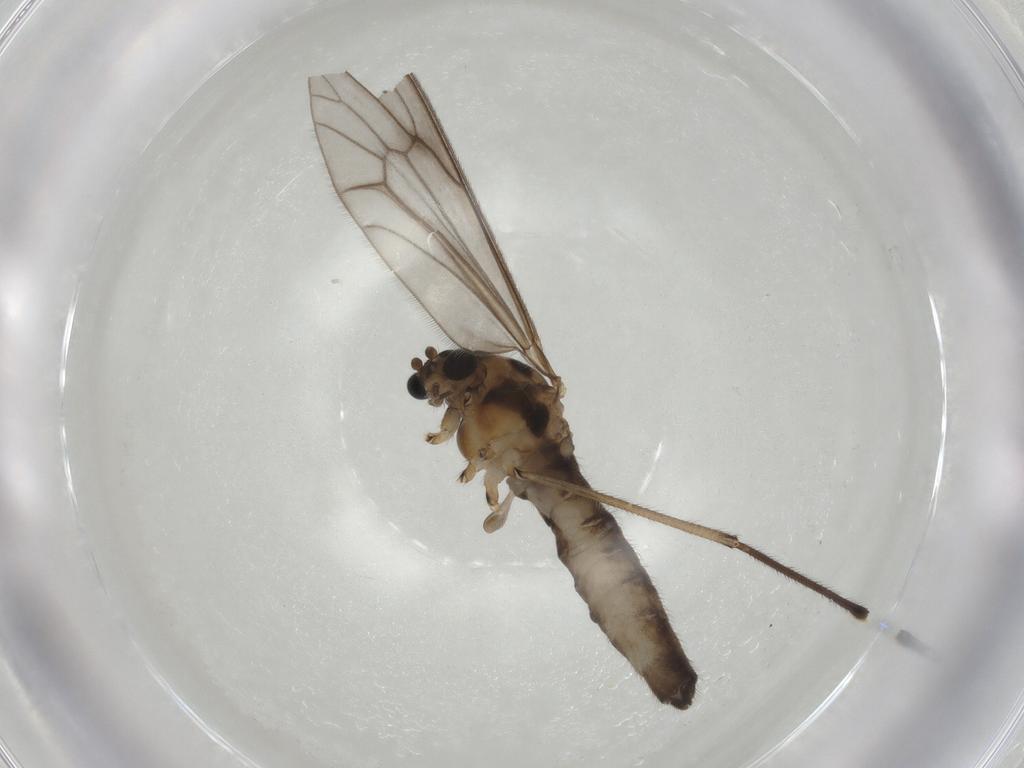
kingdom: Animalia
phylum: Arthropoda
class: Insecta
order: Diptera
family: Phoridae
